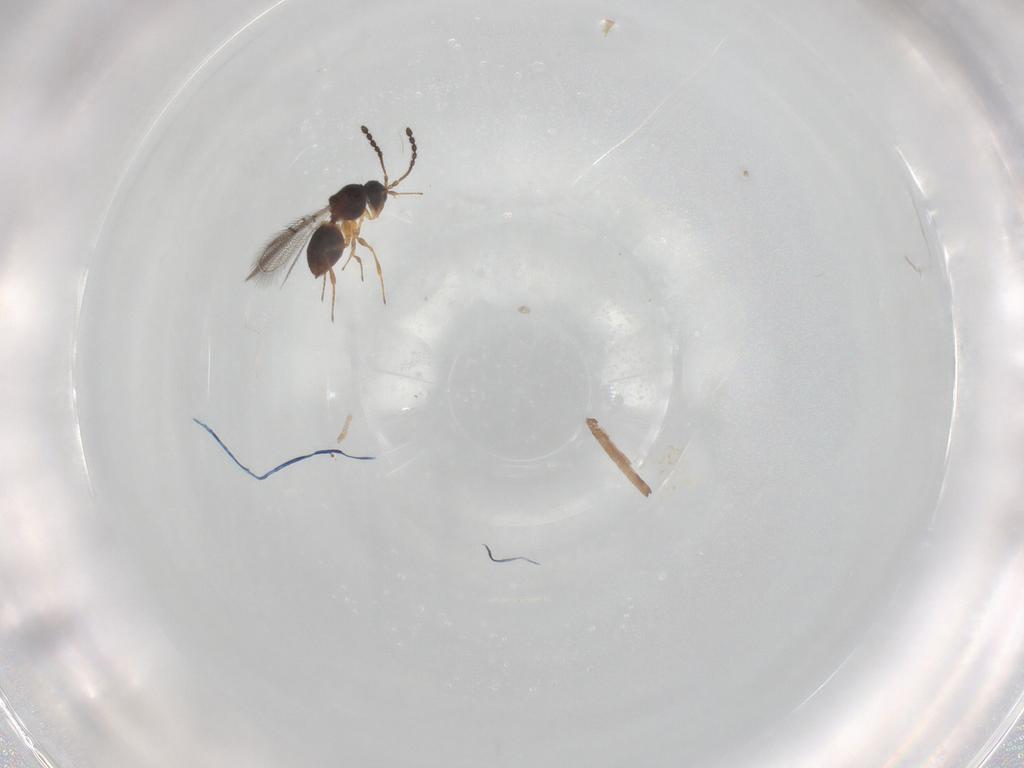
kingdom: Animalia
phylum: Arthropoda
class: Insecta
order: Hymenoptera
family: Figitidae
